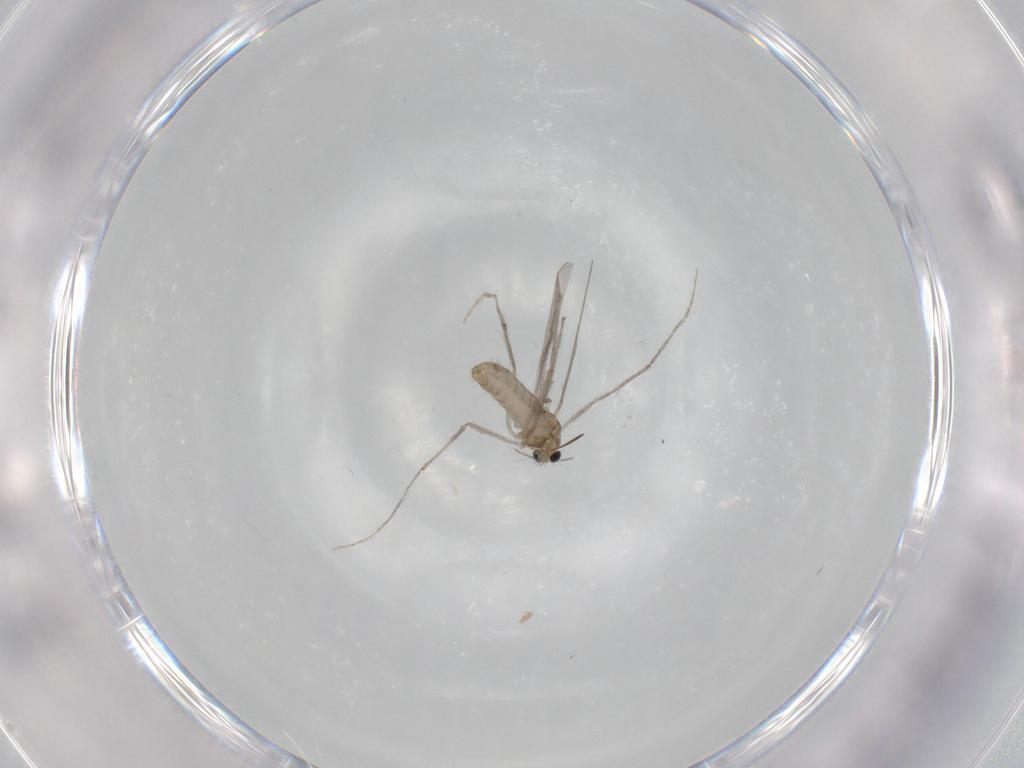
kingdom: Animalia
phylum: Arthropoda
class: Insecta
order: Diptera
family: Chironomidae
